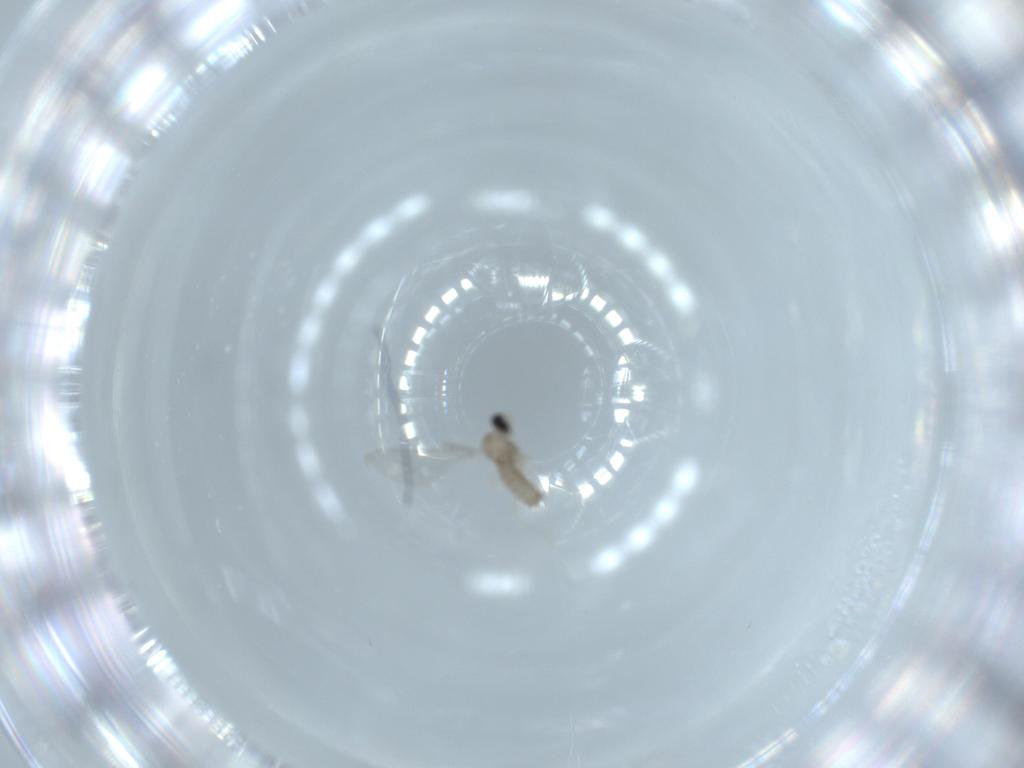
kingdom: Animalia
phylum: Arthropoda
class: Insecta
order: Diptera
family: Cecidomyiidae
